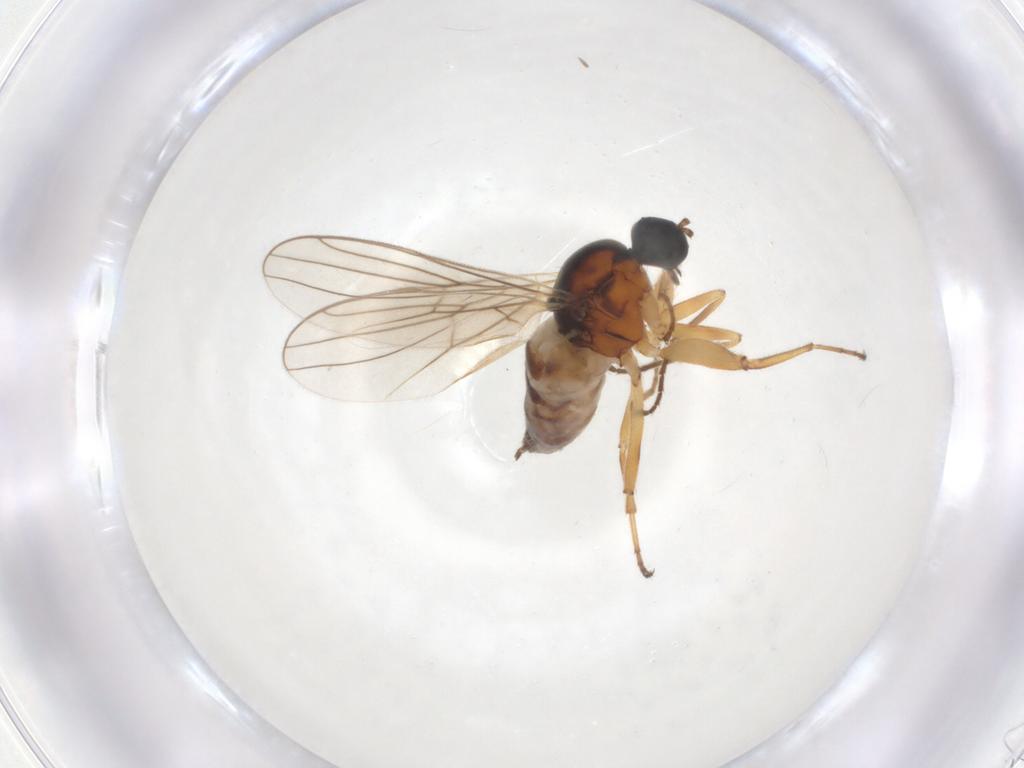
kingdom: Animalia
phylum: Arthropoda
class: Insecta
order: Diptera
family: Hybotidae
